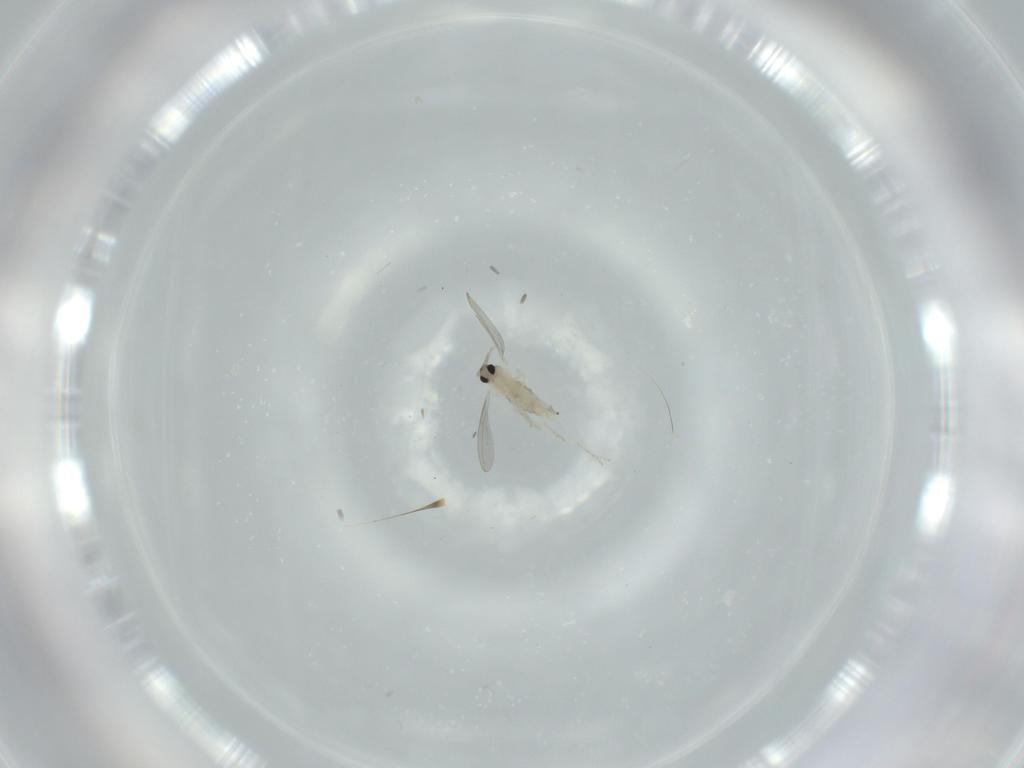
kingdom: Animalia
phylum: Arthropoda
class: Insecta
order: Diptera
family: Cecidomyiidae
